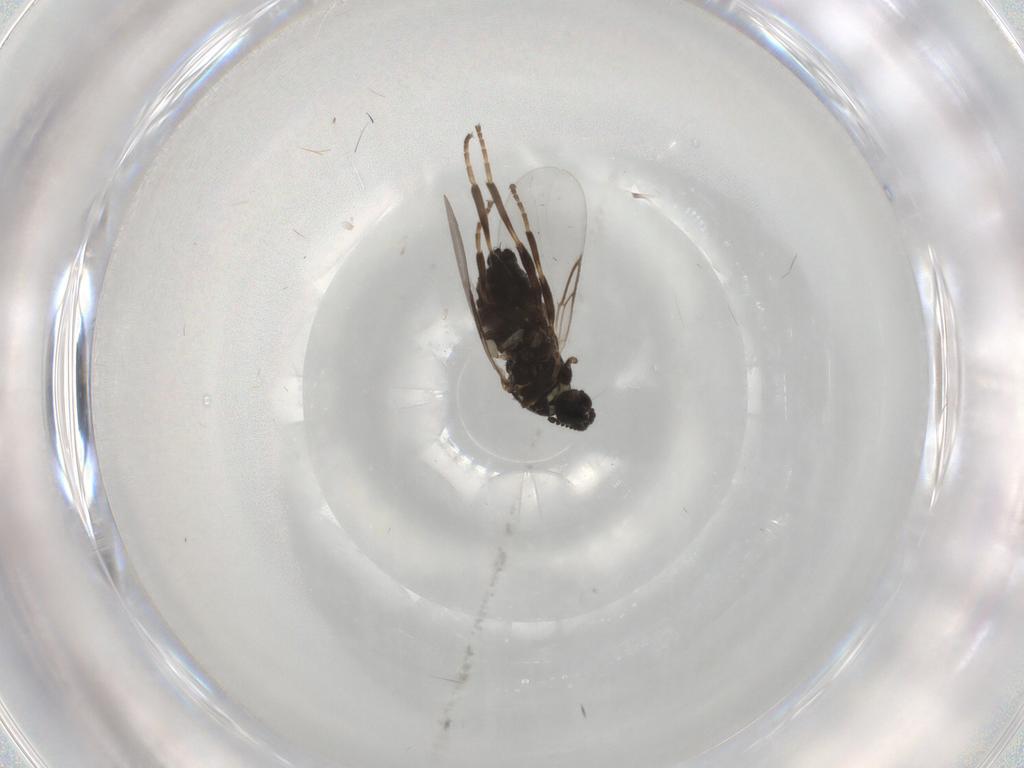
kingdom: Animalia
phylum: Arthropoda
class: Insecta
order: Diptera
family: Scatopsidae
